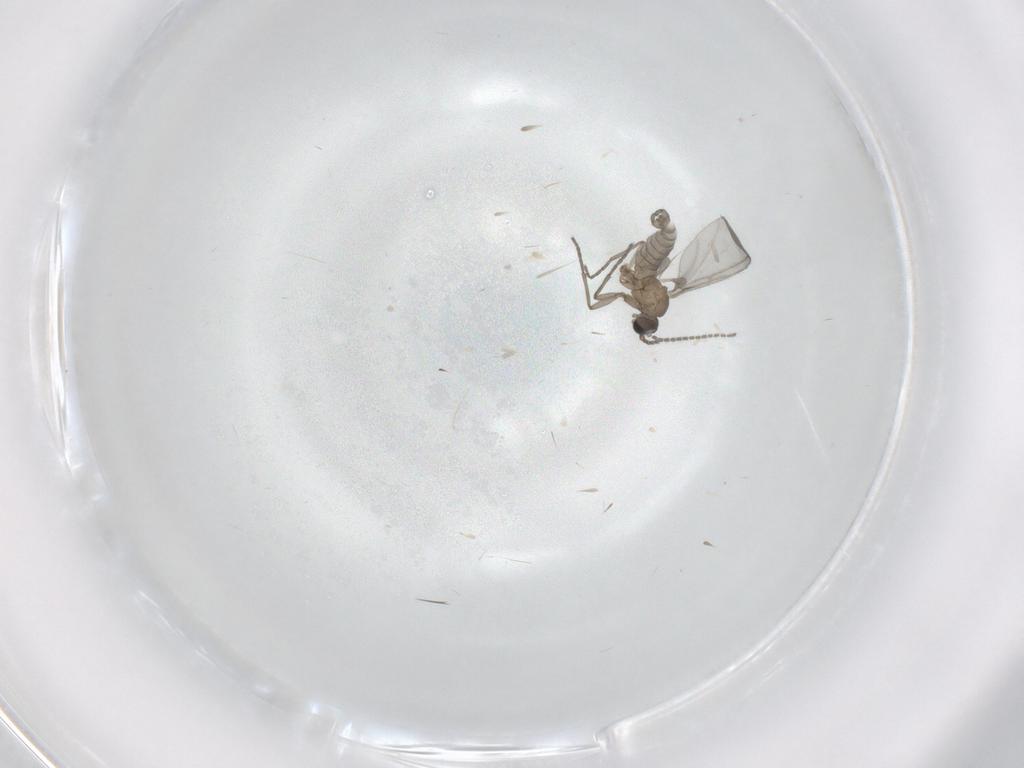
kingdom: Animalia
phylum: Arthropoda
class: Insecta
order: Diptera
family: Sciaridae
